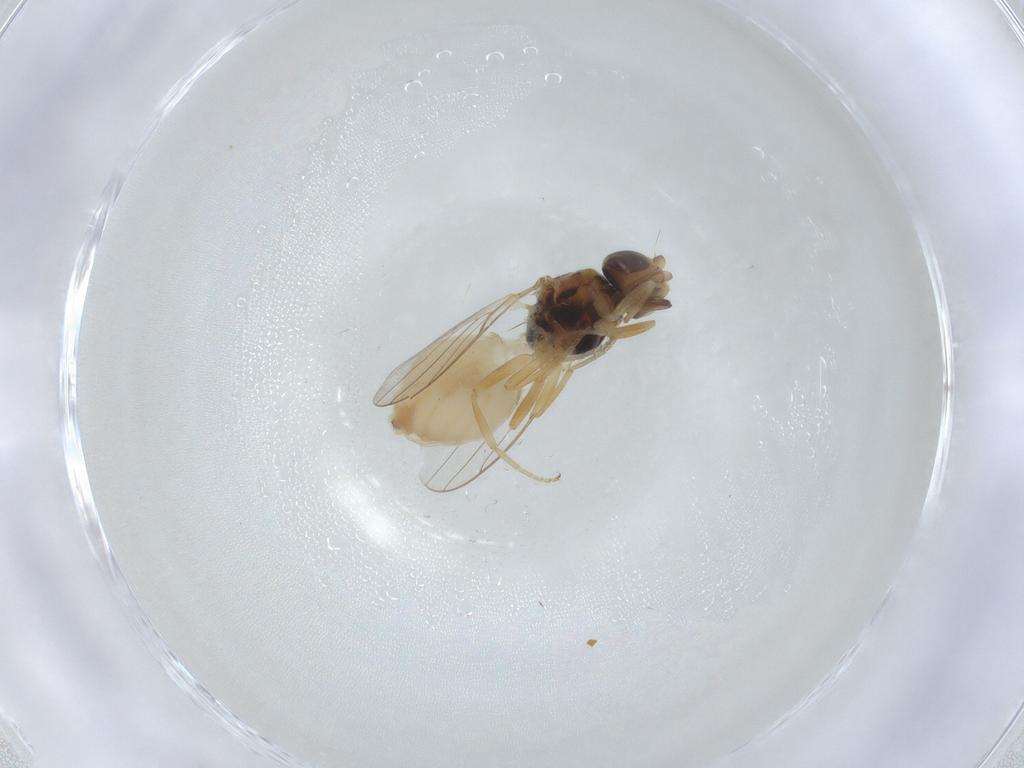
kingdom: Animalia
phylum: Arthropoda
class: Insecta
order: Diptera
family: Chloropidae
